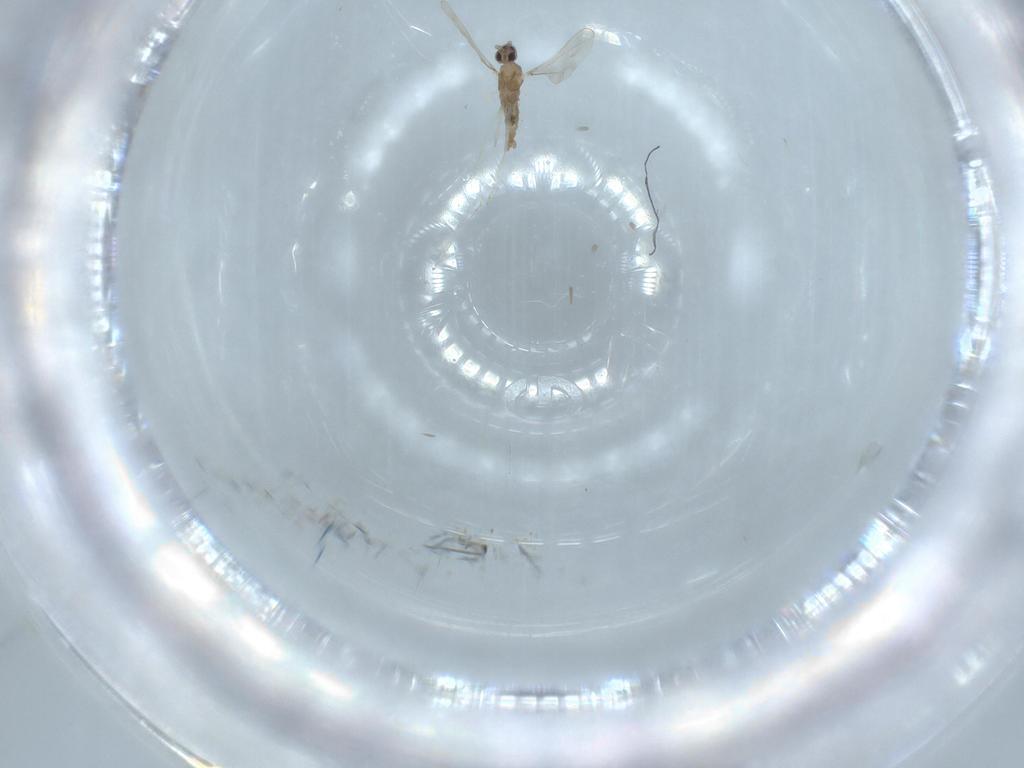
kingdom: Animalia
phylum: Arthropoda
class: Insecta
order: Diptera
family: Cecidomyiidae
